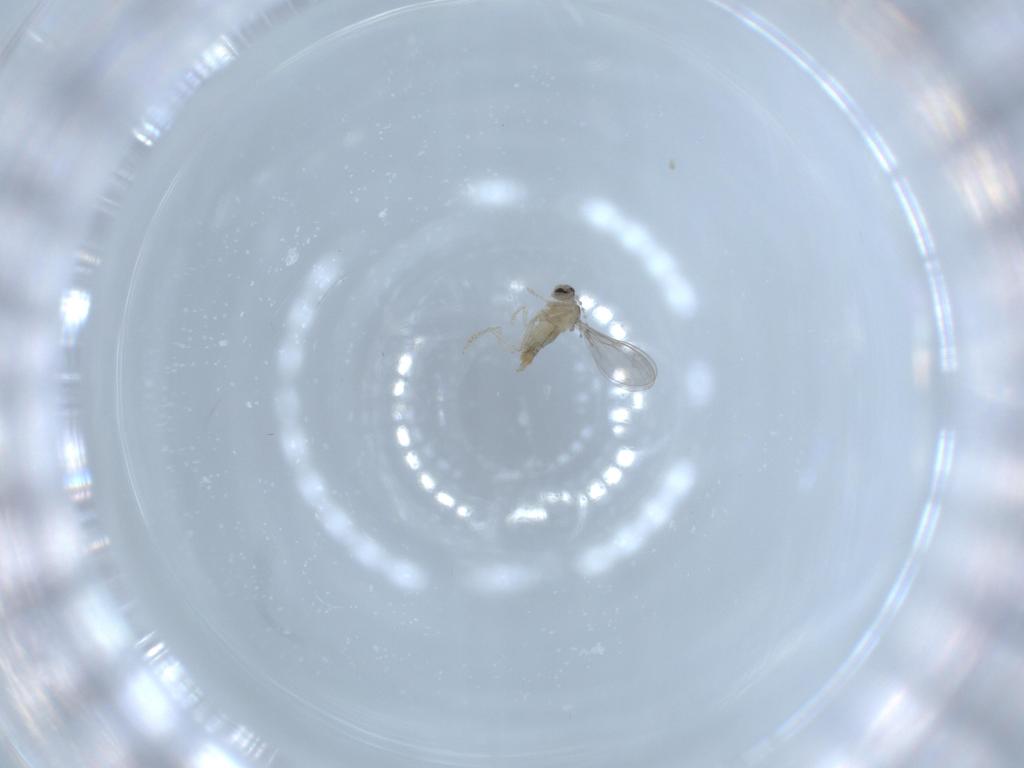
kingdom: Animalia
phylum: Arthropoda
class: Insecta
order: Diptera
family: Cecidomyiidae
